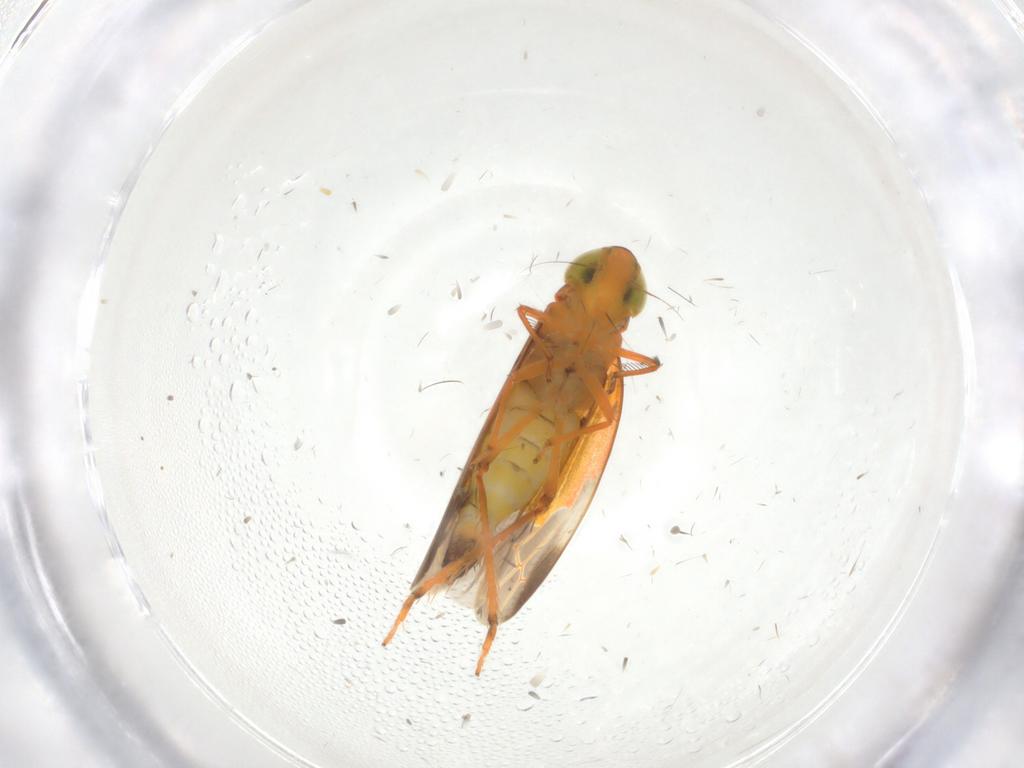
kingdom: Animalia
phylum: Arthropoda
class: Insecta
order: Hemiptera
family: Cicadellidae
